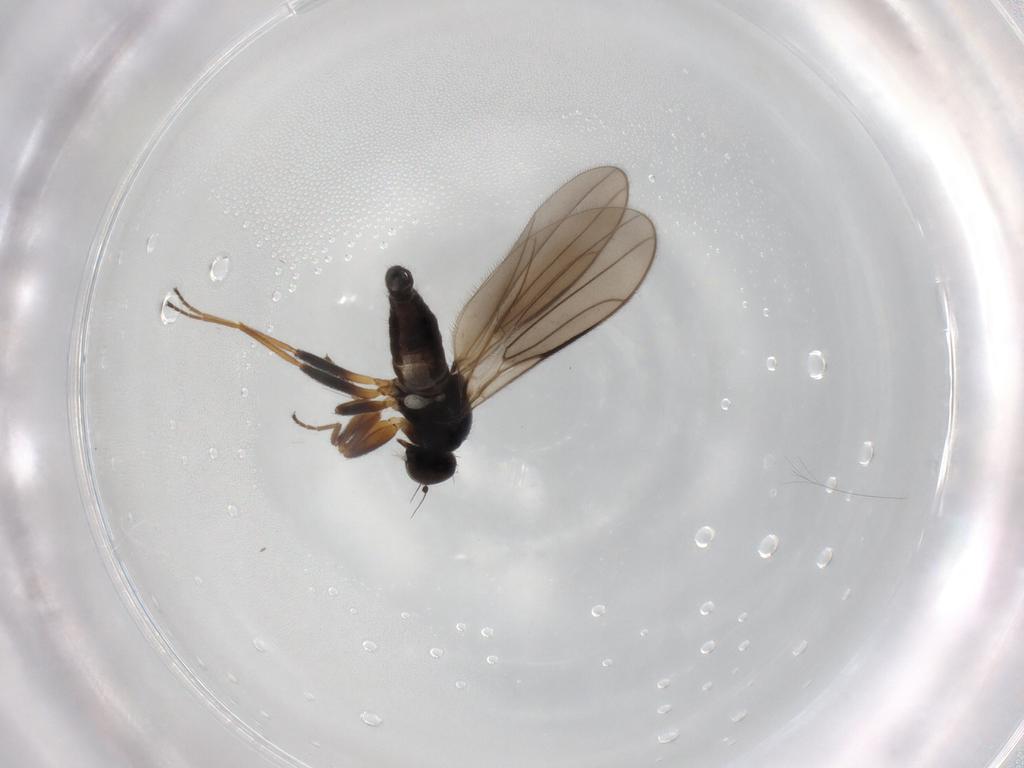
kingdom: Animalia
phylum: Arthropoda
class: Insecta
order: Diptera
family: Hybotidae
